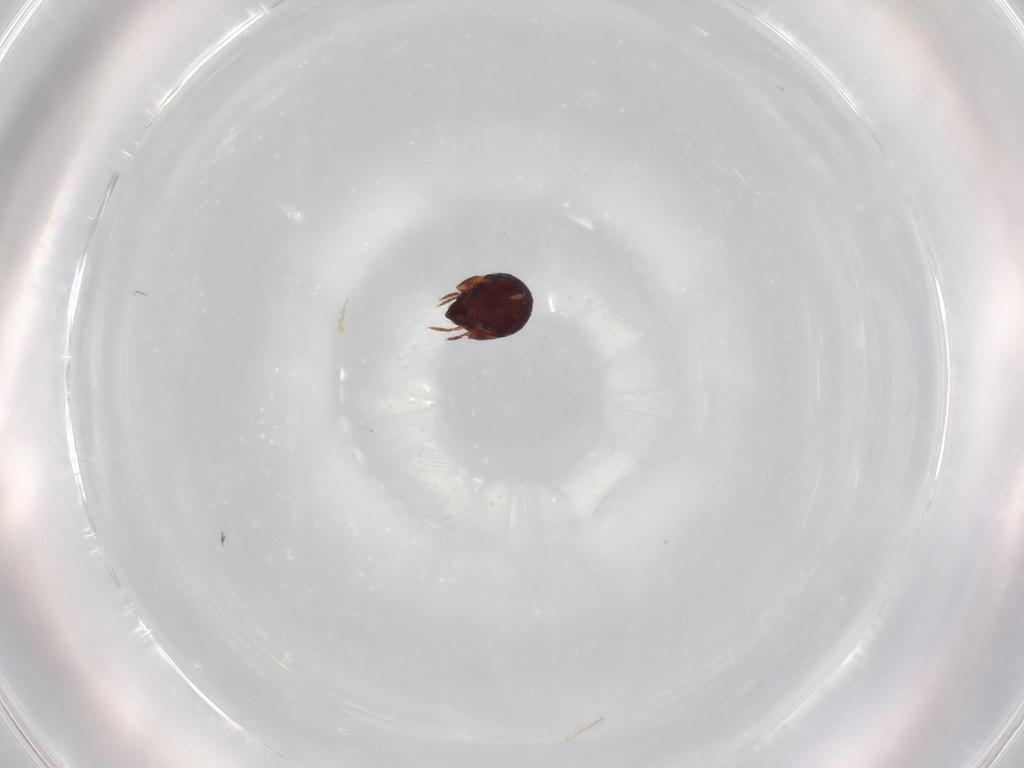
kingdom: Animalia
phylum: Arthropoda
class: Arachnida
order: Sarcoptiformes
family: Humerobatidae
